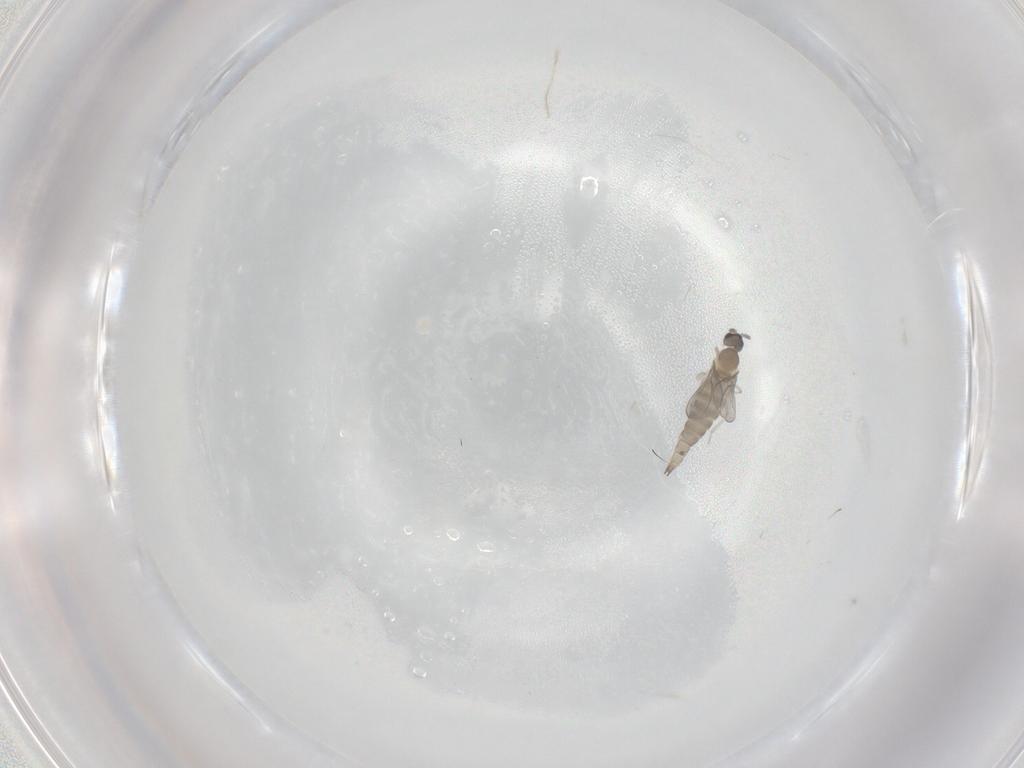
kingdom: Animalia
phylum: Arthropoda
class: Insecta
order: Diptera
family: Cecidomyiidae
